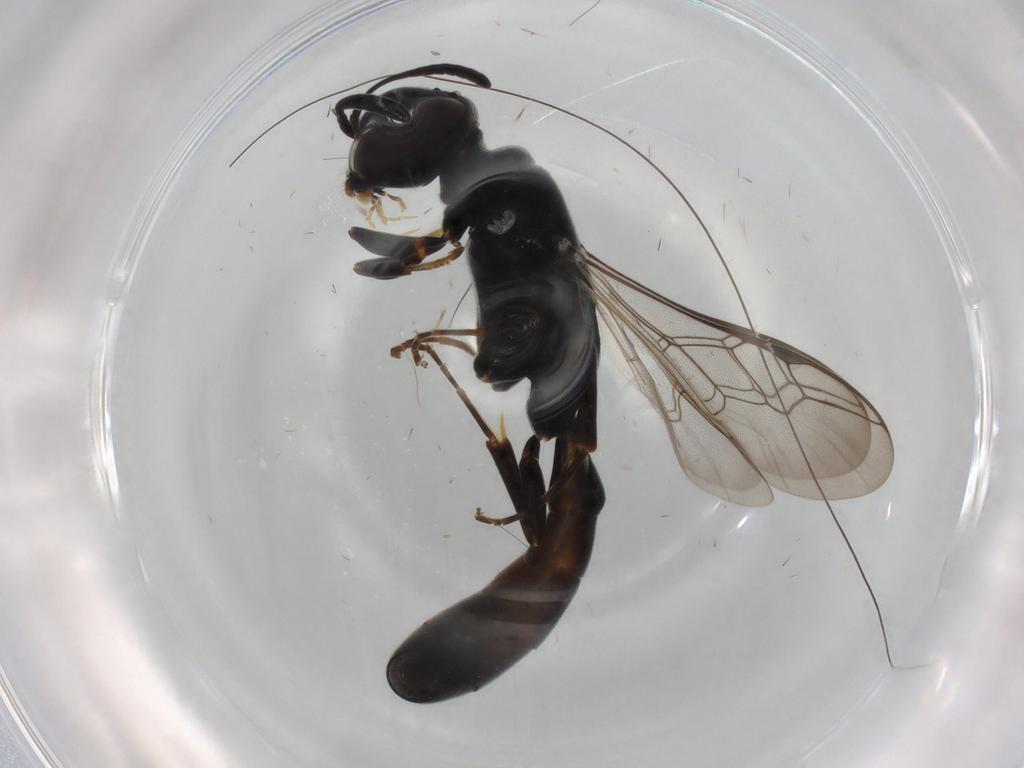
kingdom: Animalia
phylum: Arthropoda
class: Insecta
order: Hymenoptera
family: Crabronidae
